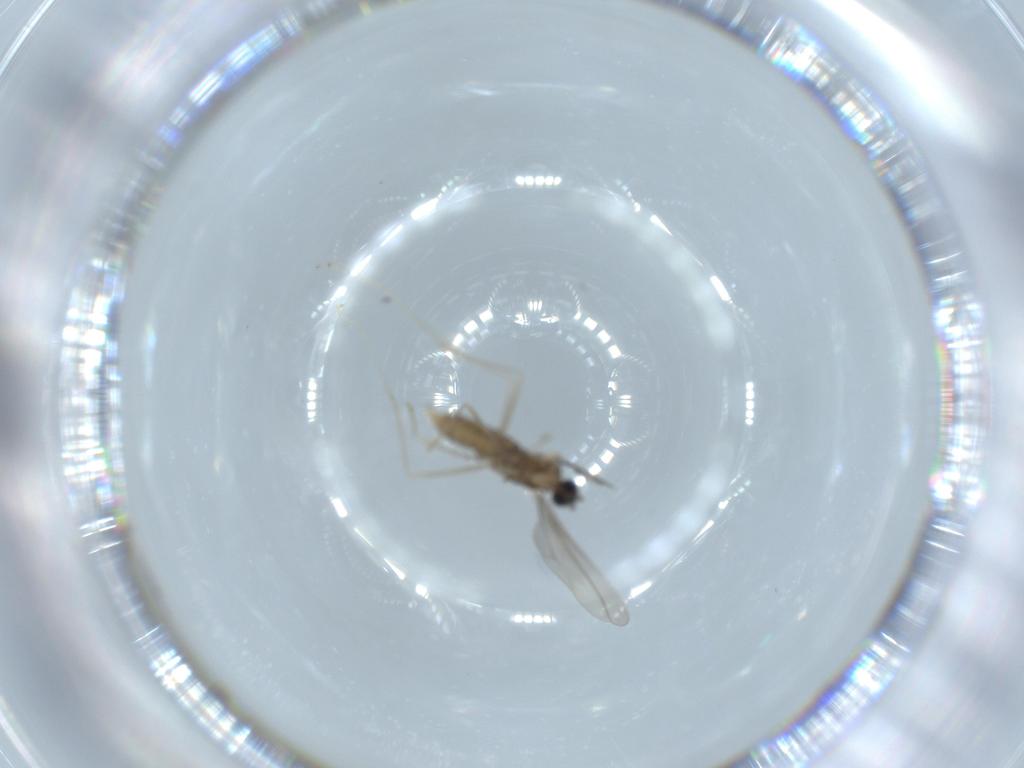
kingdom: Animalia
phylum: Arthropoda
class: Insecta
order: Diptera
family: Cecidomyiidae
